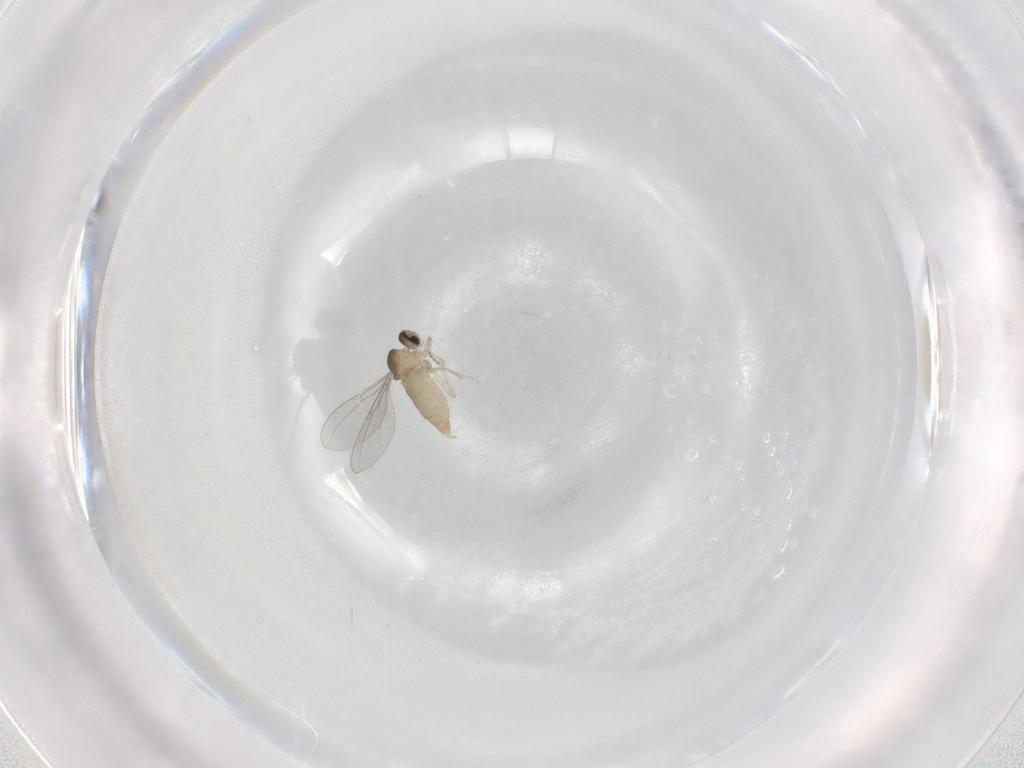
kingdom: Animalia
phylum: Arthropoda
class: Insecta
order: Diptera
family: Cecidomyiidae
